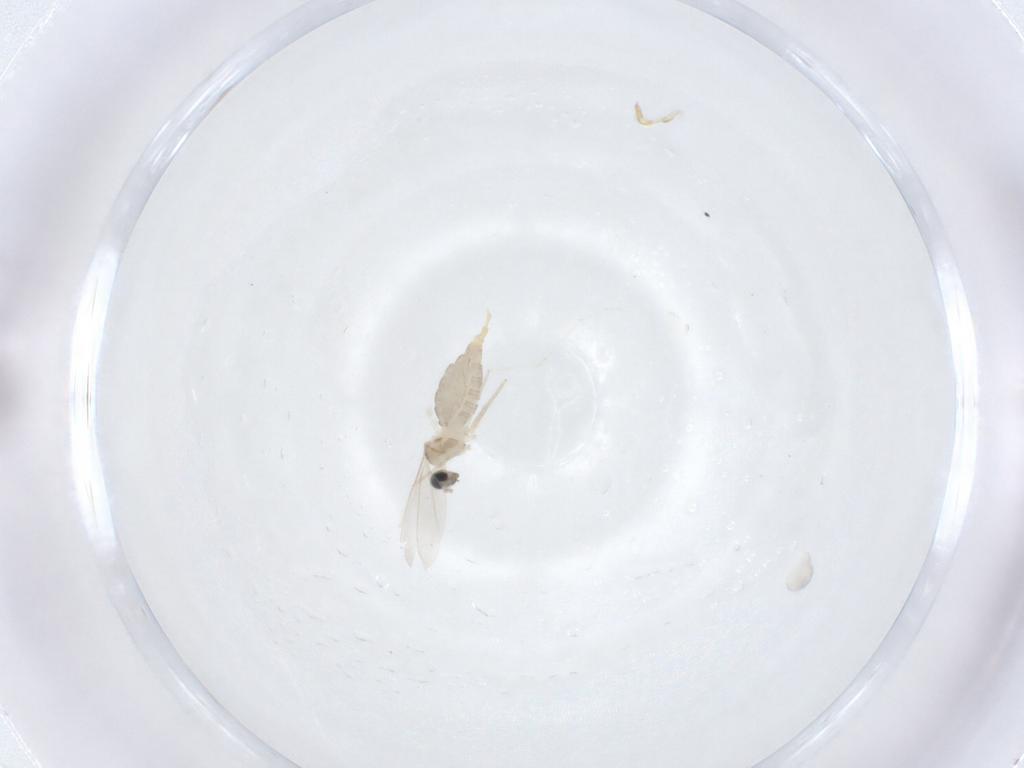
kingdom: Animalia
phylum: Arthropoda
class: Insecta
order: Diptera
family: Cecidomyiidae
